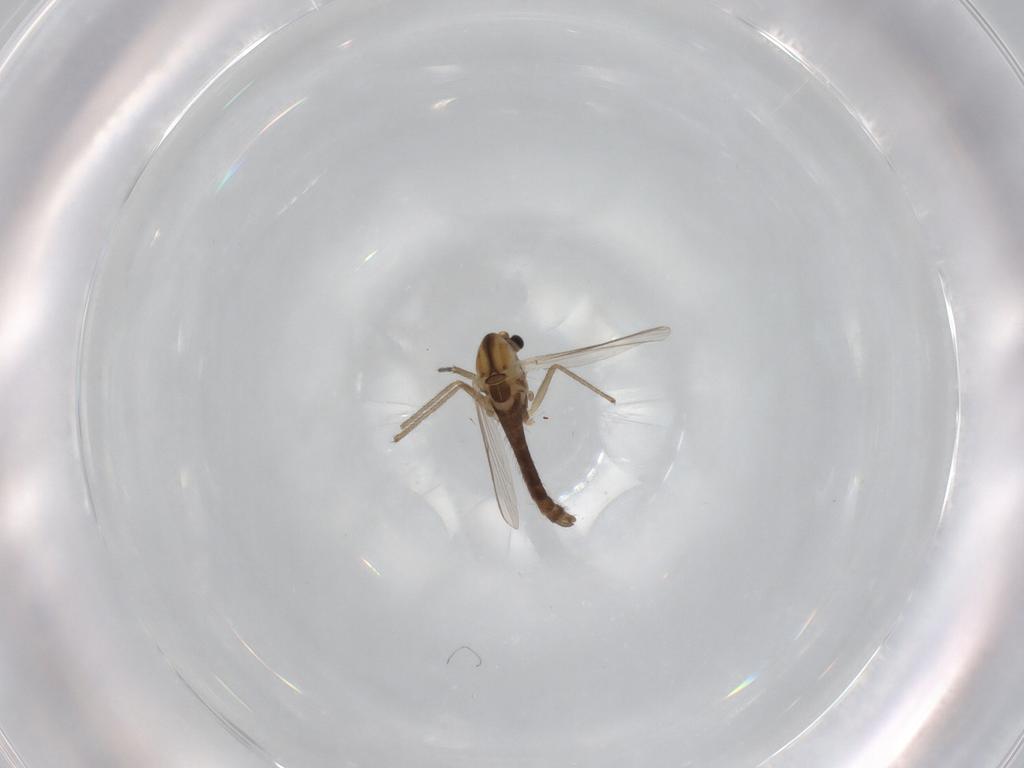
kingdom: Animalia
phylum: Arthropoda
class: Insecta
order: Diptera
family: Chironomidae
